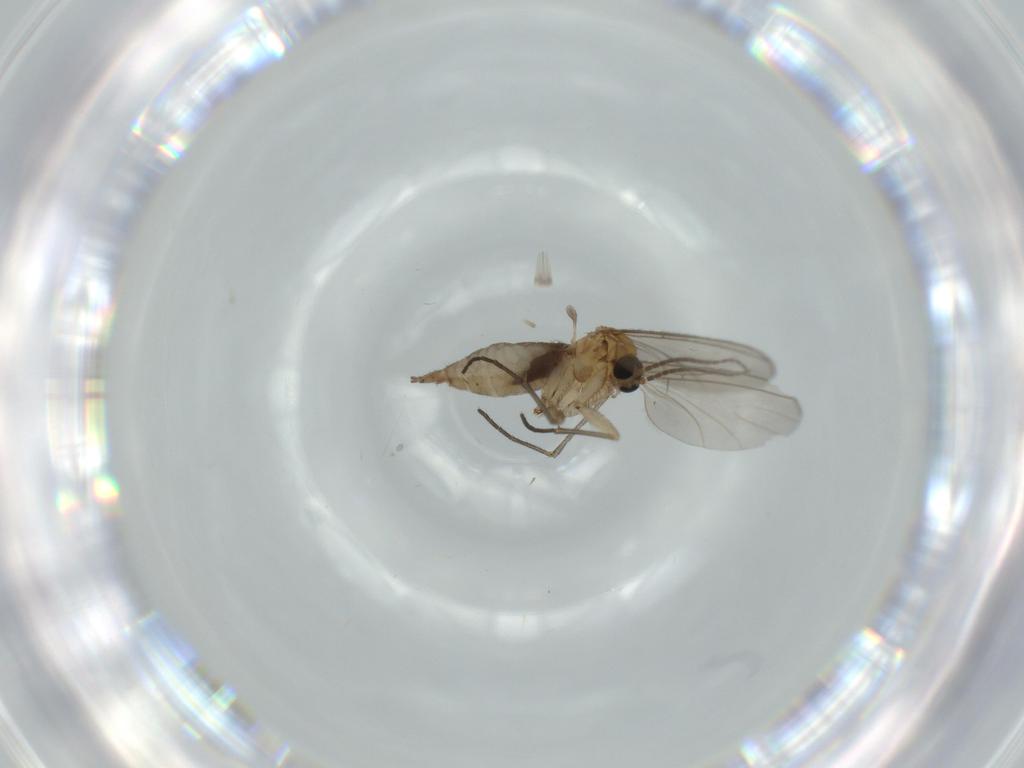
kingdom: Animalia
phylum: Arthropoda
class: Insecta
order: Diptera
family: Sciaridae
